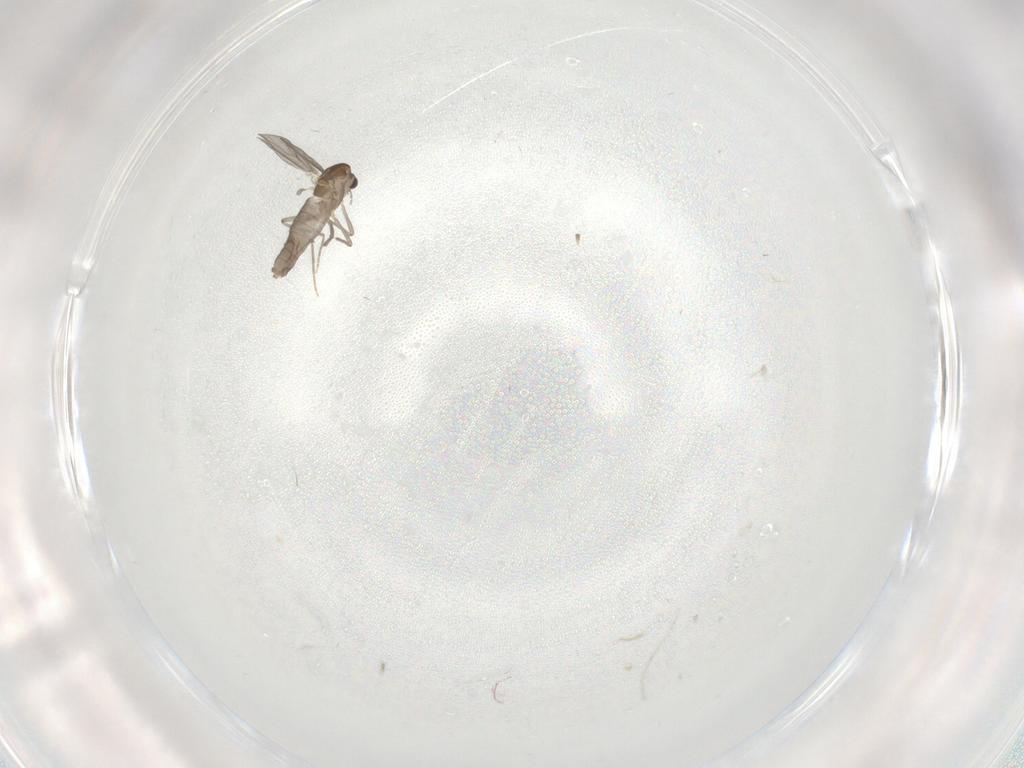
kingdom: Animalia
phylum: Arthropoda
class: Insecta
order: Diptera
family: Chironomidae
